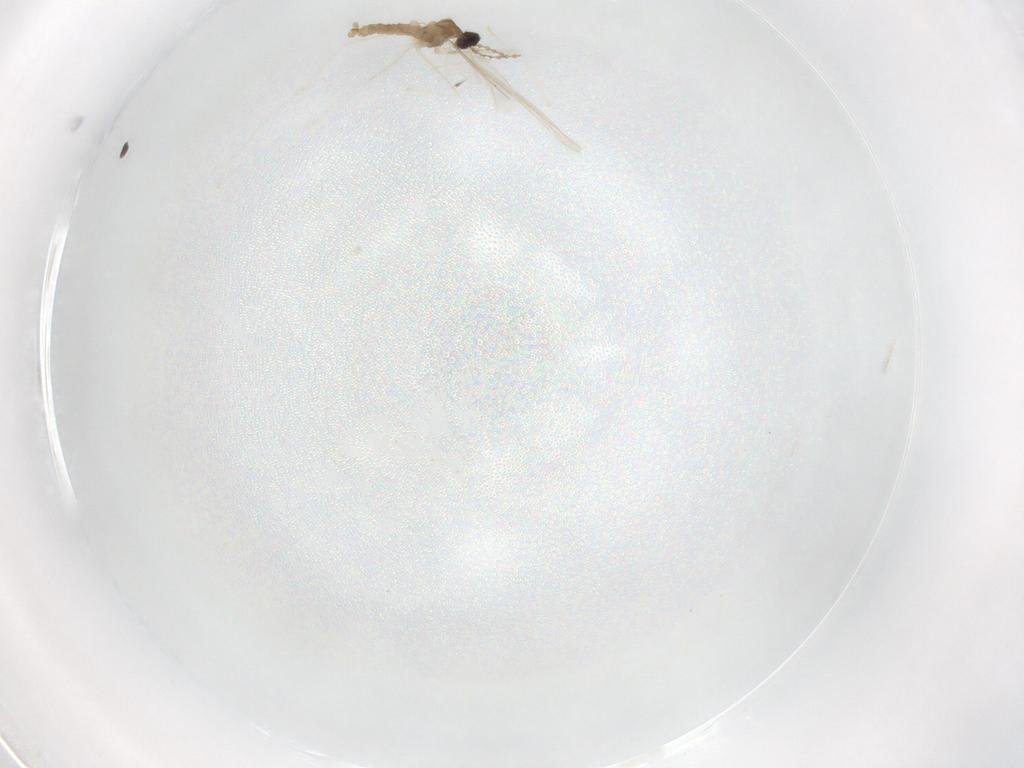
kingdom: Animalia
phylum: Arthropoda
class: Insecta
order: Diptera
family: Cecidomyiidae
